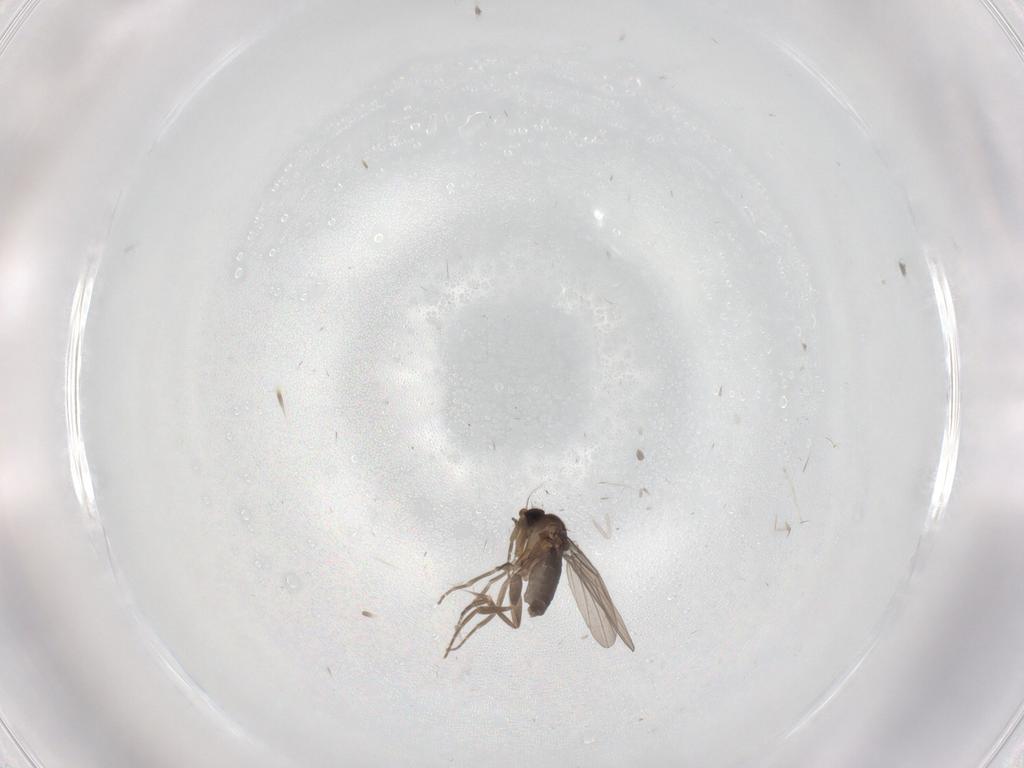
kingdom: Animalia
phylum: Arthropoda
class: Insecta
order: Diptera
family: Phoridae
